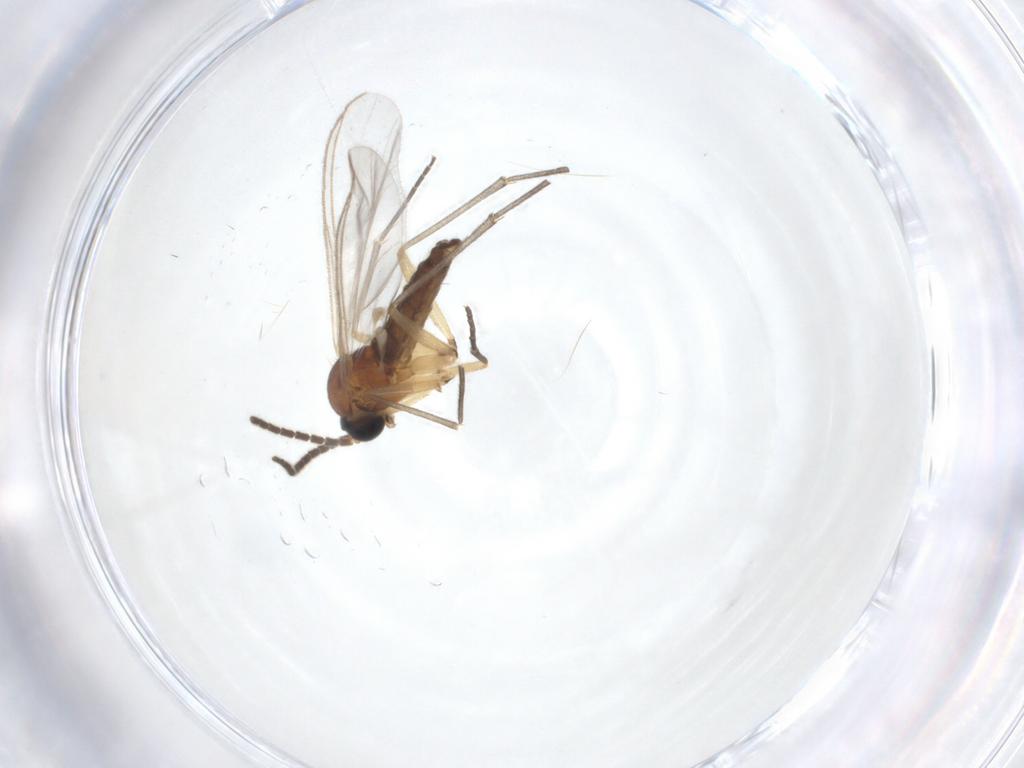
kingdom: Animalia
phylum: Arthropoda
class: Insecta
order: Diptera
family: Sciaridae
